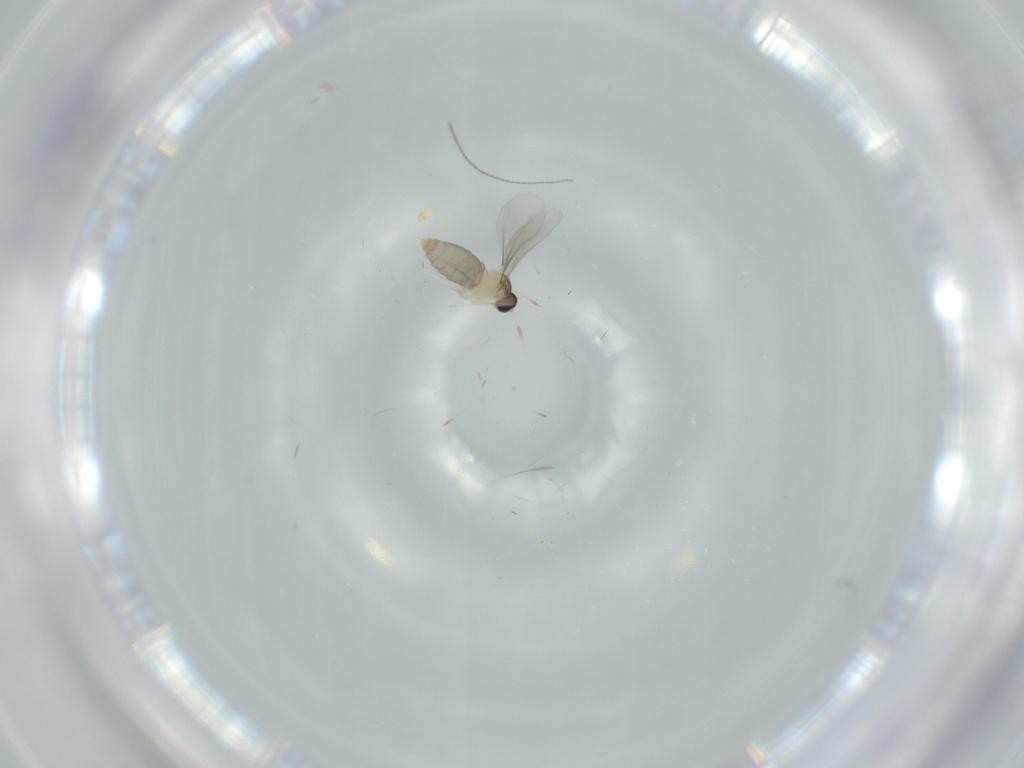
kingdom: Animalia
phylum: Arthropoda
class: Insecta
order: Diptera
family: Cecidomyiidae
